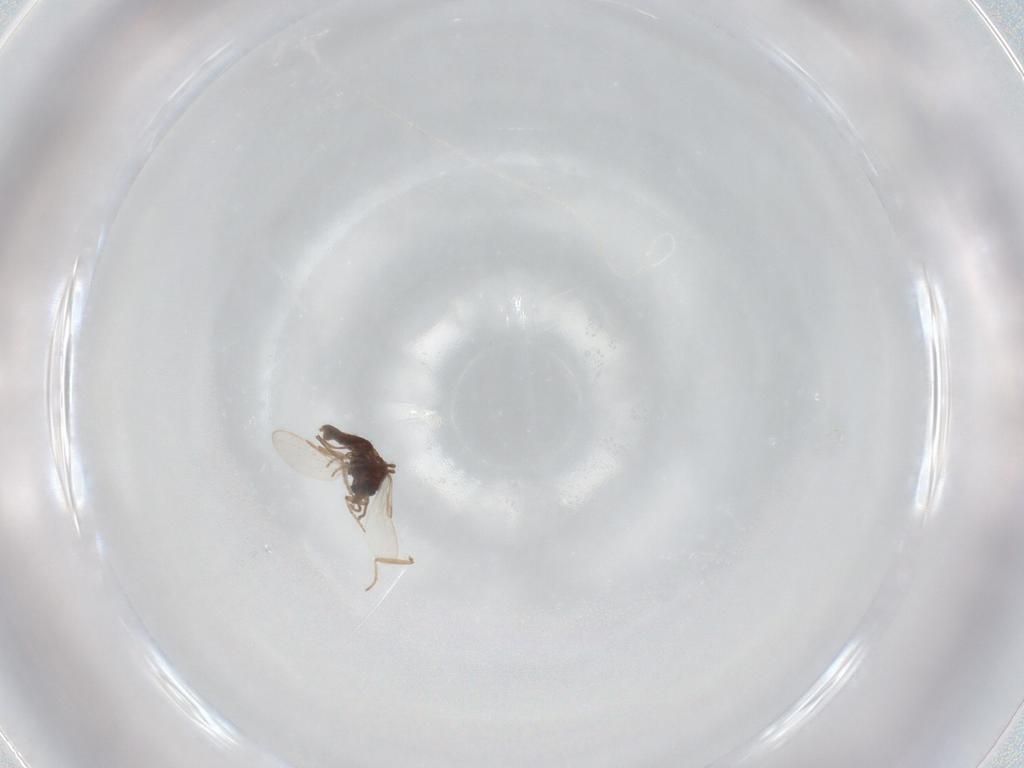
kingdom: Animalia
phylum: Arthropoda
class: Insecta
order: Diptera
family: Ceratopogonidae
